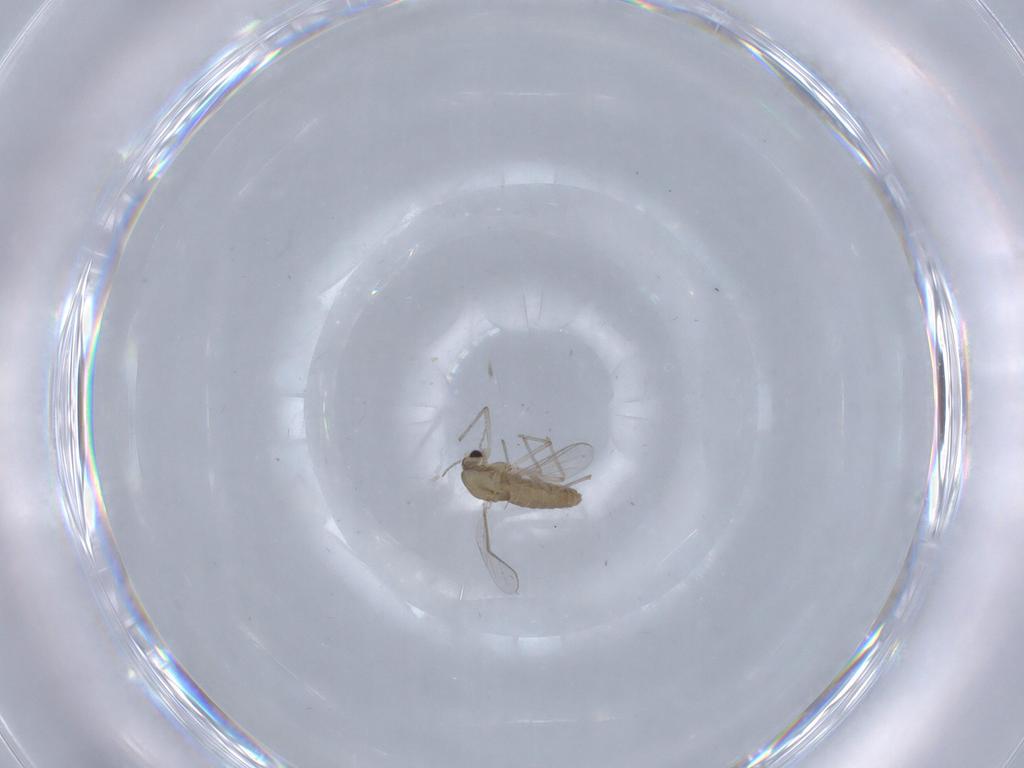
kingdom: Animalia
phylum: Arthropoda
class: Insecta
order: Diptera
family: Chironomidae
